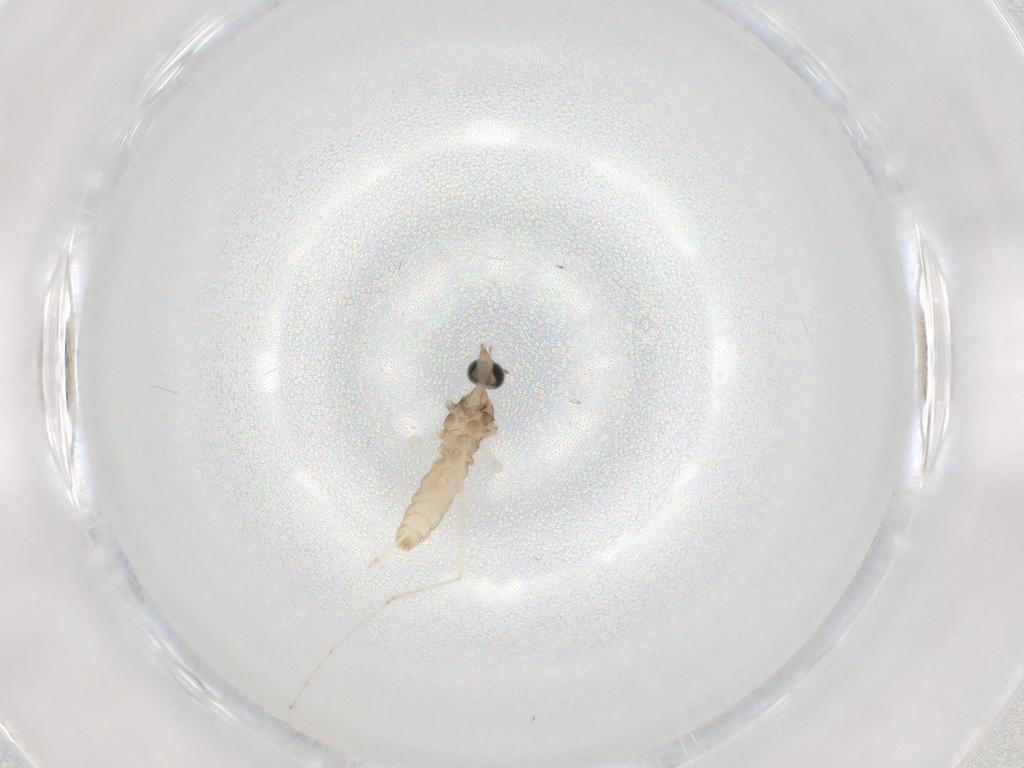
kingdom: Animalia
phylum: Arthropoda
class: Insecta
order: Diptera
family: Cecidomyiidae
